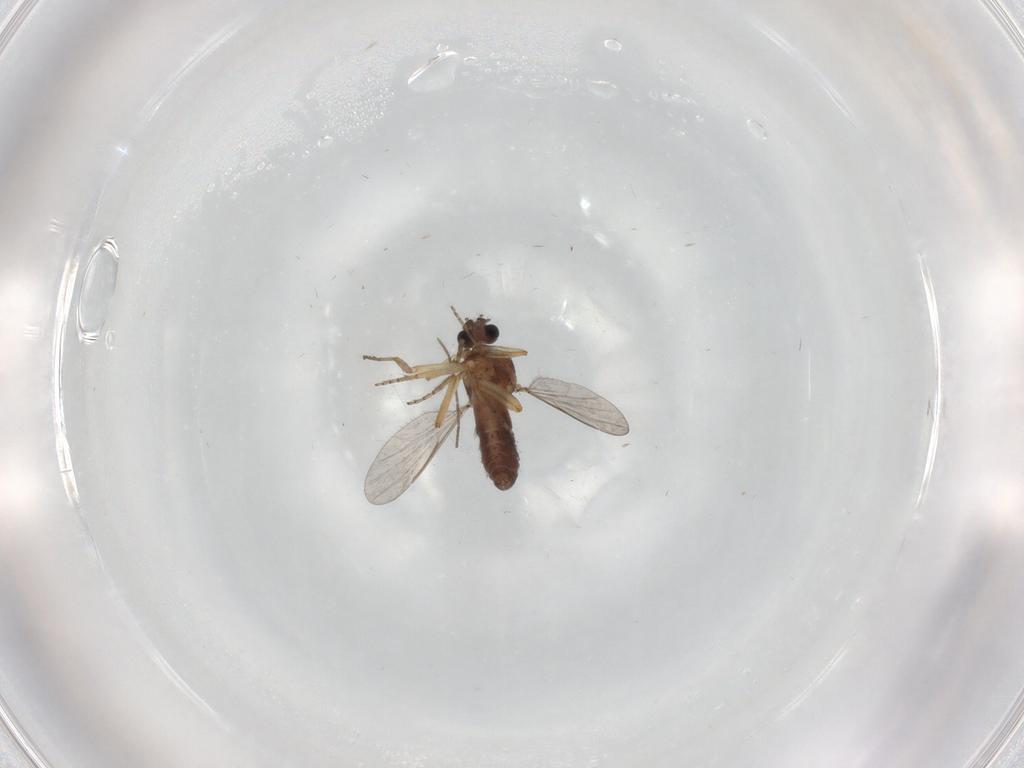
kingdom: Animalia
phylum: Arthropoda
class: Insecta
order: Diptera
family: Ceratopogonidae
